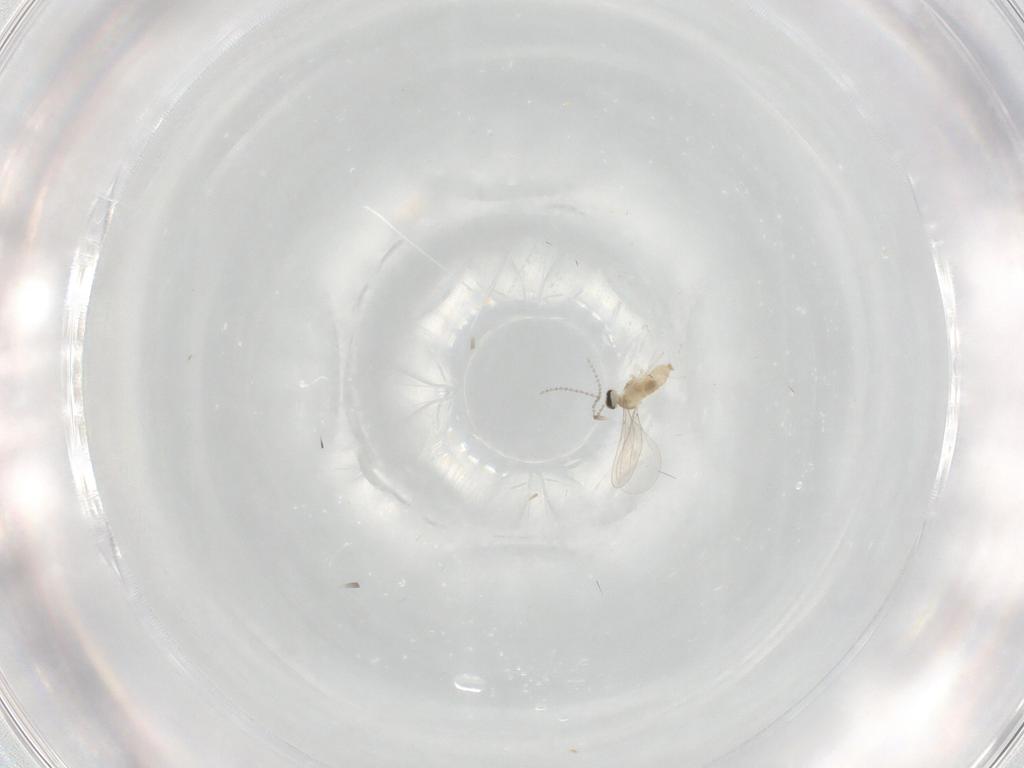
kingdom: Animalia
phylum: Arthropoda
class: Insecta
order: Diptera
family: Cecidomyiidae
